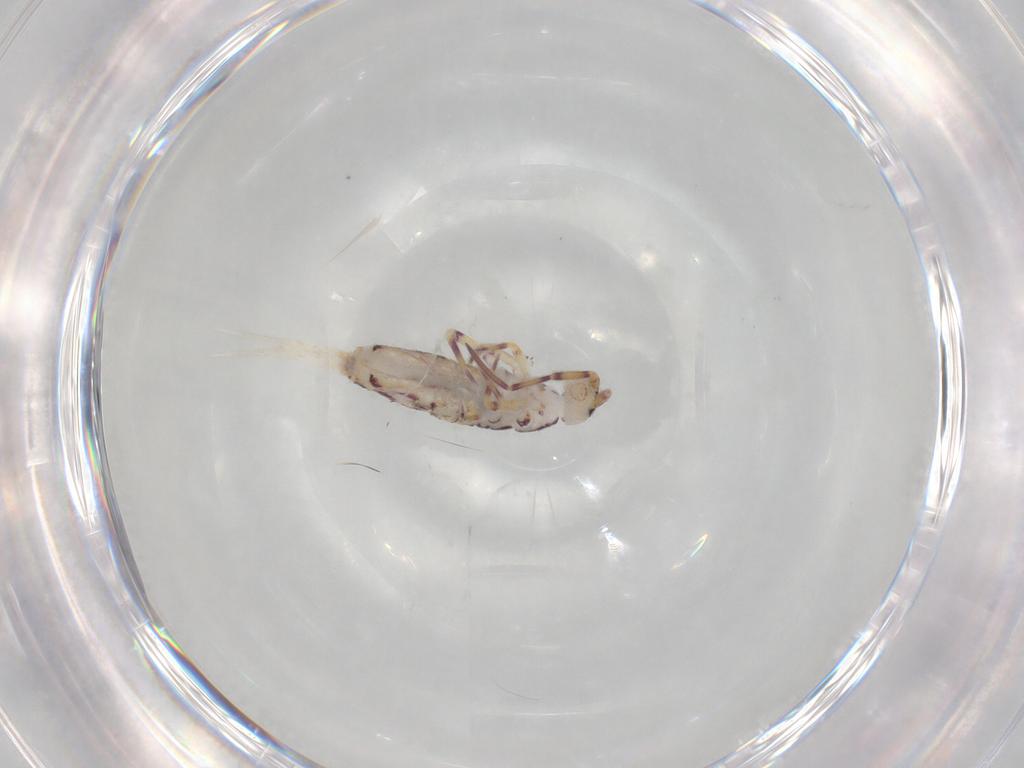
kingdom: Animalia
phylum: Arthropoda
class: Collembola
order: Entomobryomorpha
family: Entomobryidae
